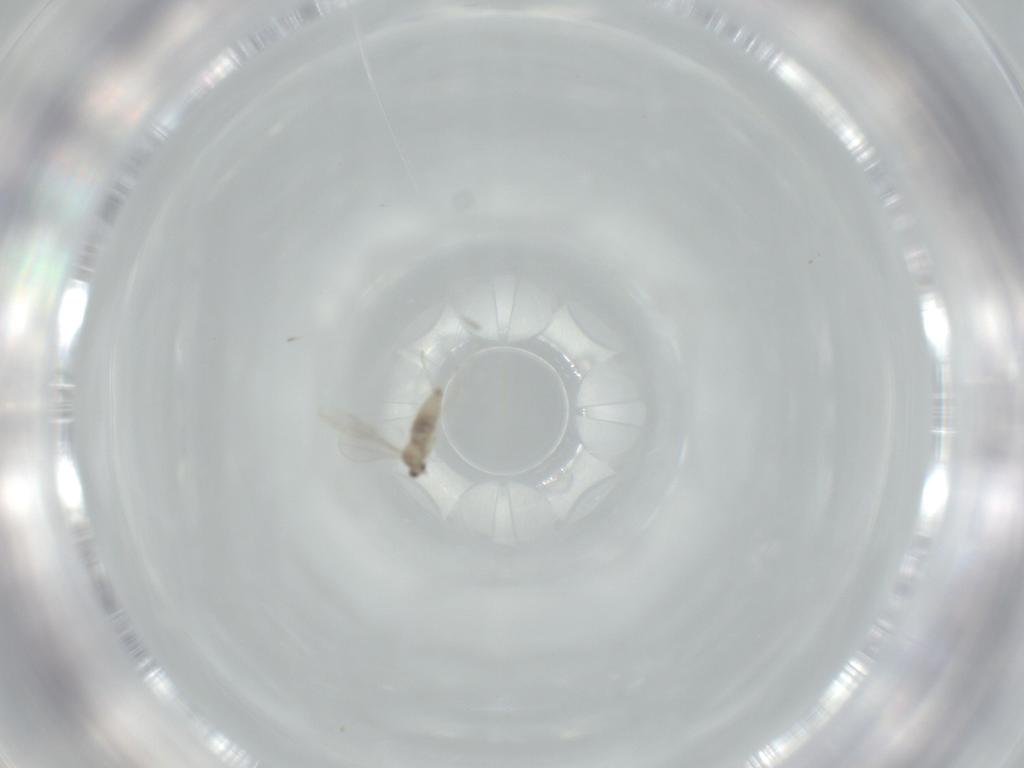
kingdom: Animalia
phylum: Arthropoda
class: Insecta
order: Diptera
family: Cecidomyiidae
